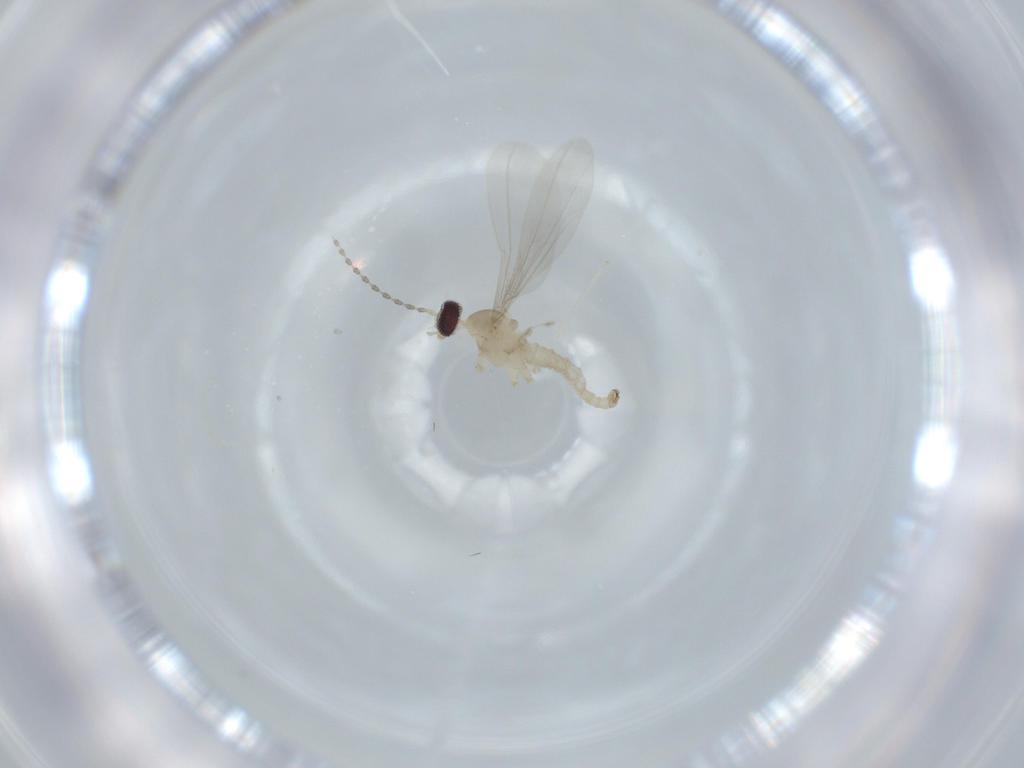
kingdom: Animalia
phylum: Arthropoda
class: Insecta
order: Diptera
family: Cecidomyiidae
